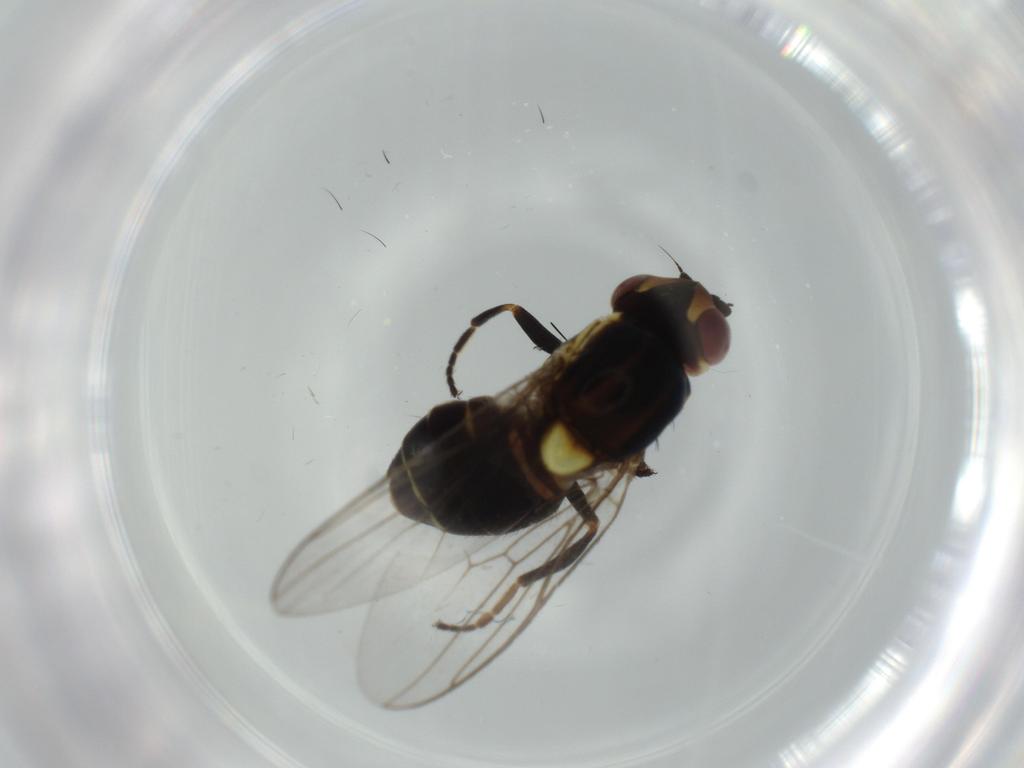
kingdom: Animalia
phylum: Arthropoda
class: Insecta
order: Diptera
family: Chloropidae
